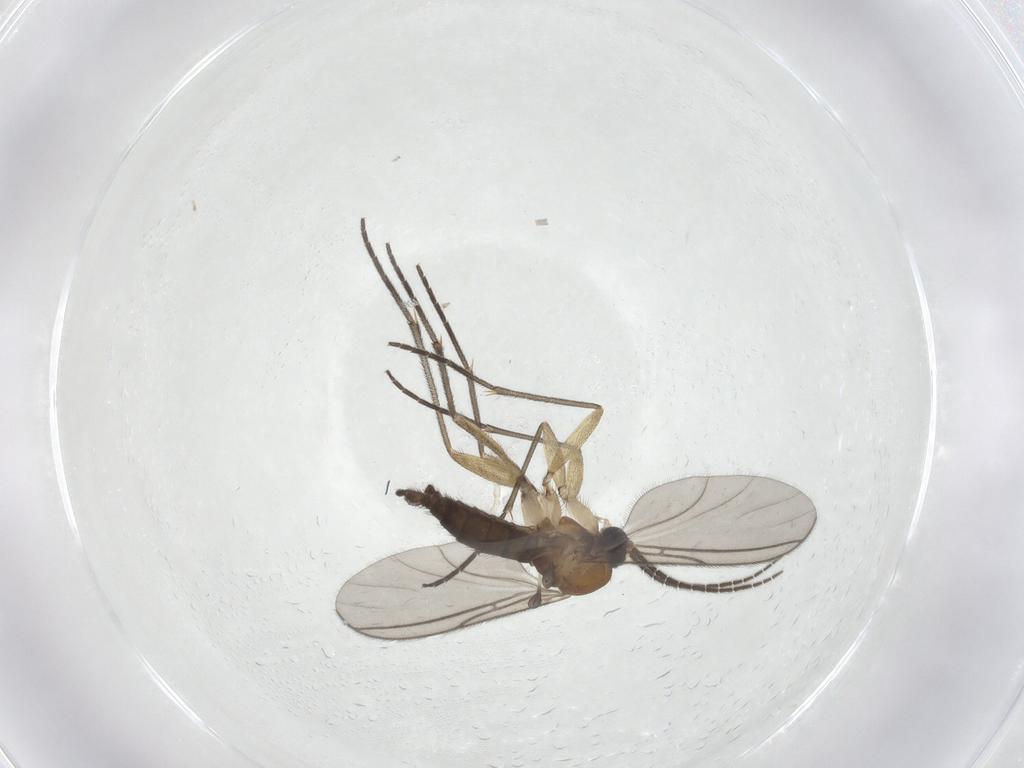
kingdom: Animalia
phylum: Arthropoda
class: Insecta
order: Diptera
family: Sciaridae
